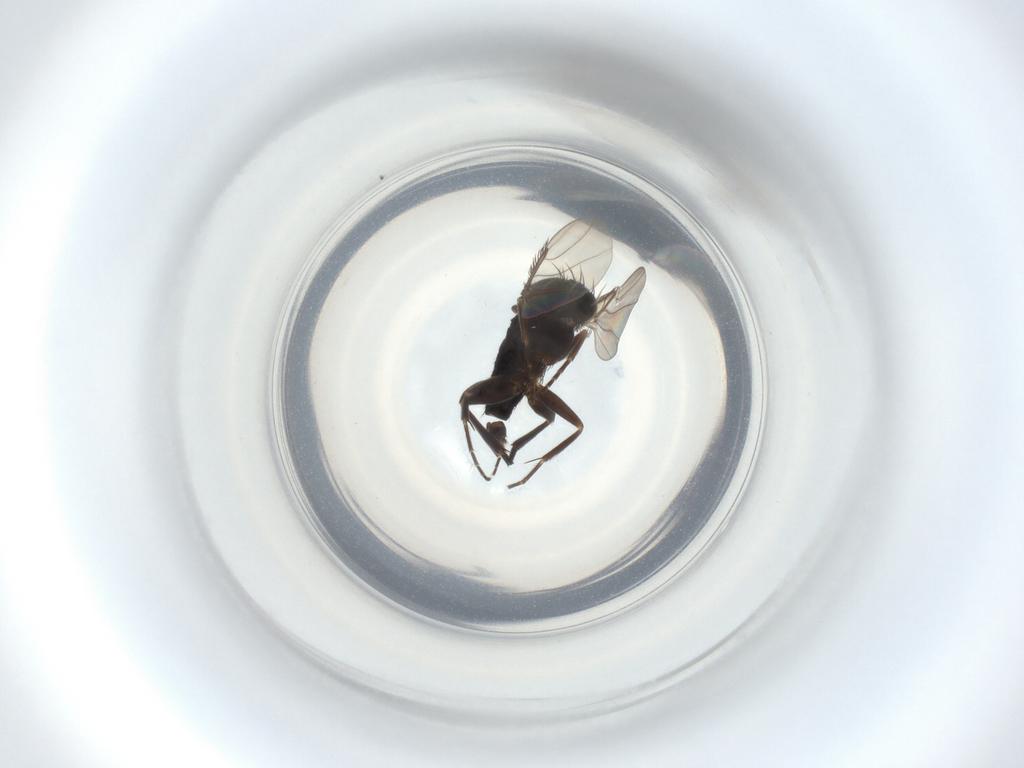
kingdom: Animalia
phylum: Arthropoda
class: Insecta
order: Diptera
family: Phoridae
